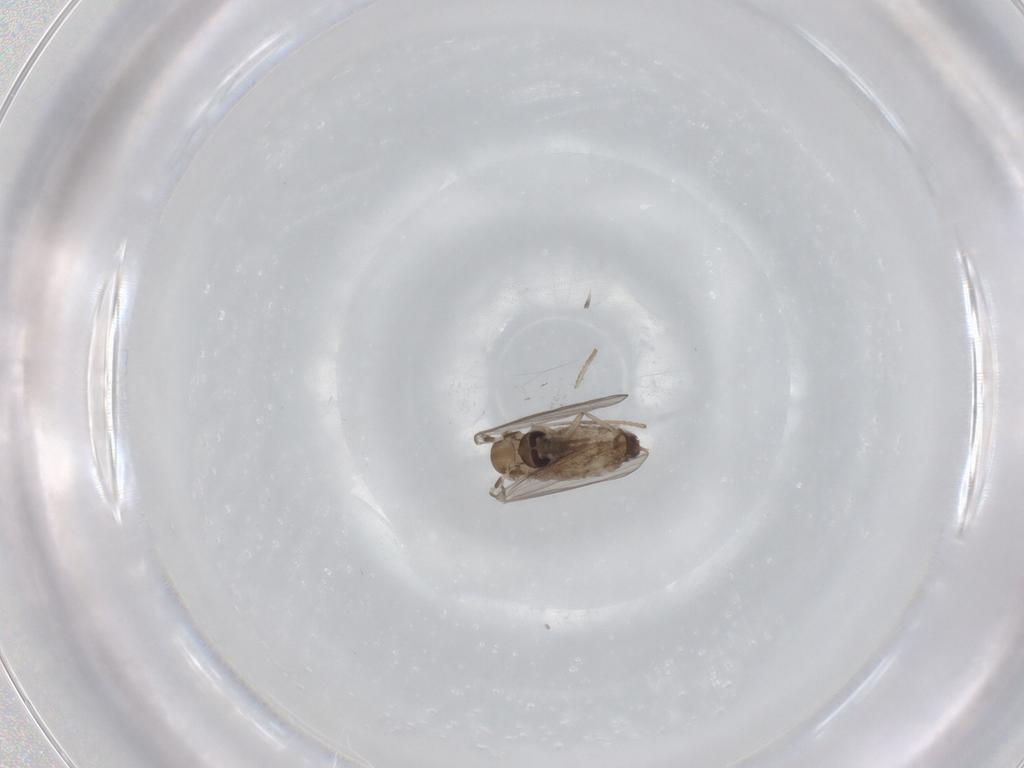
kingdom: Animalia
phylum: Arthropoda
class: Insecta
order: Diptera
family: Psychodidae
